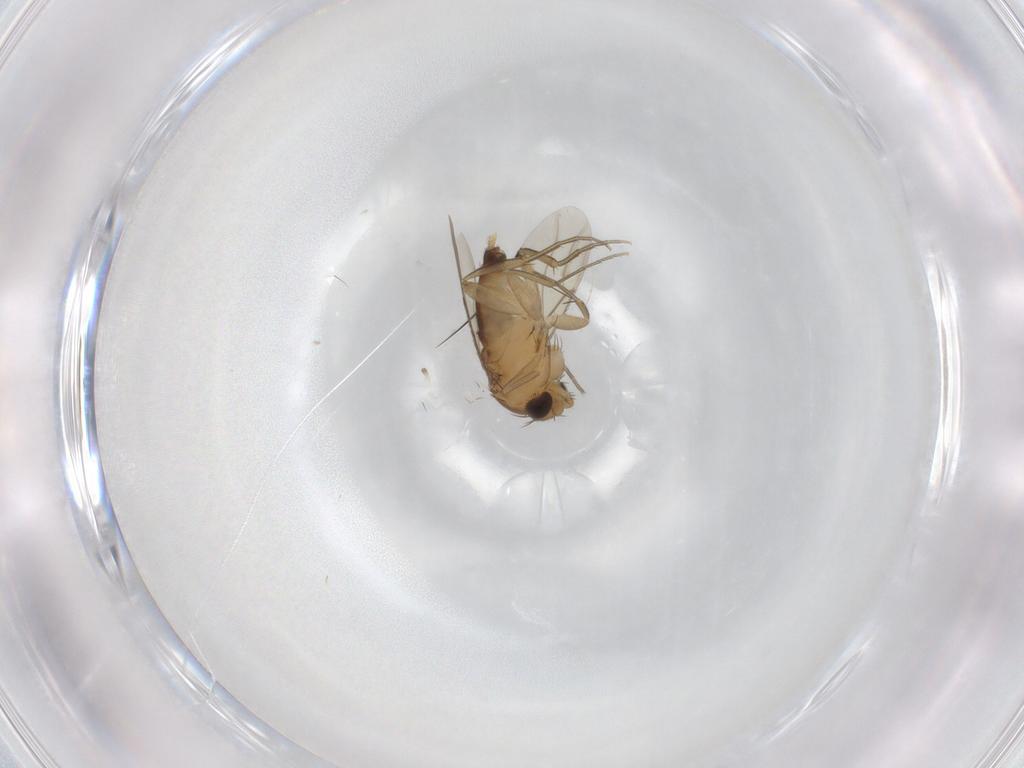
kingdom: Animalia
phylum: Arthropoda
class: Insecta
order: Diptera
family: Phoridae
